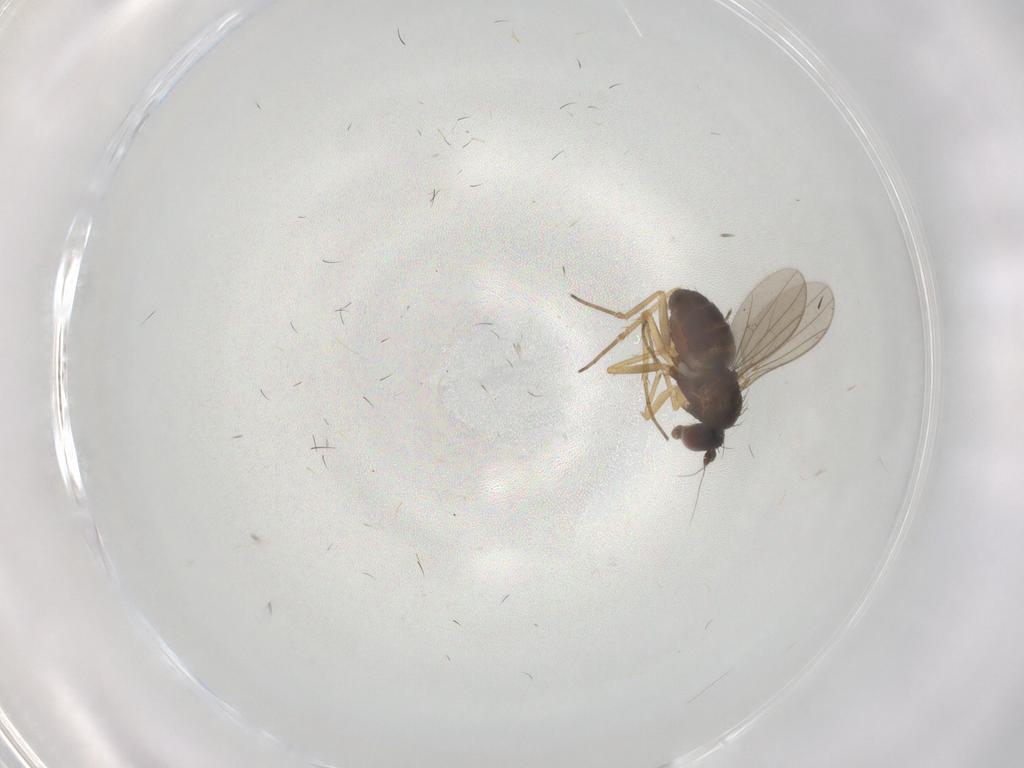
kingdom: Animalia
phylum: Arthropoda
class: Insecta
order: Diptera
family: Dolichopodidae
